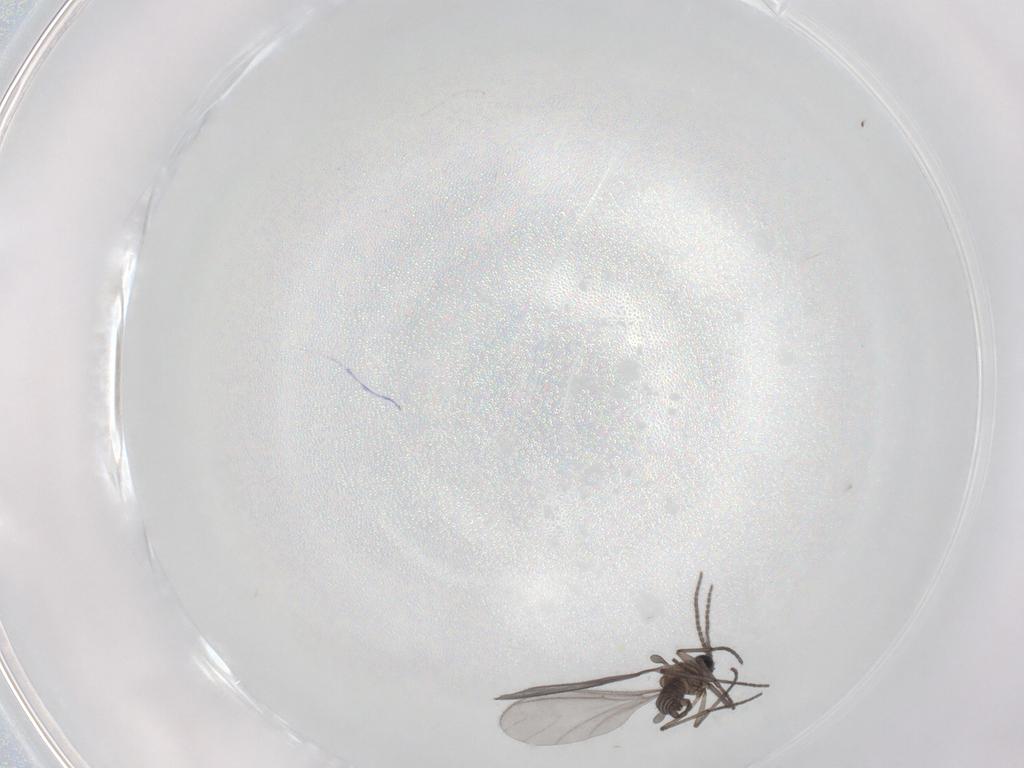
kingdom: Animalia
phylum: Arthropoda
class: Insecta
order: Diptera
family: Sciaridae
